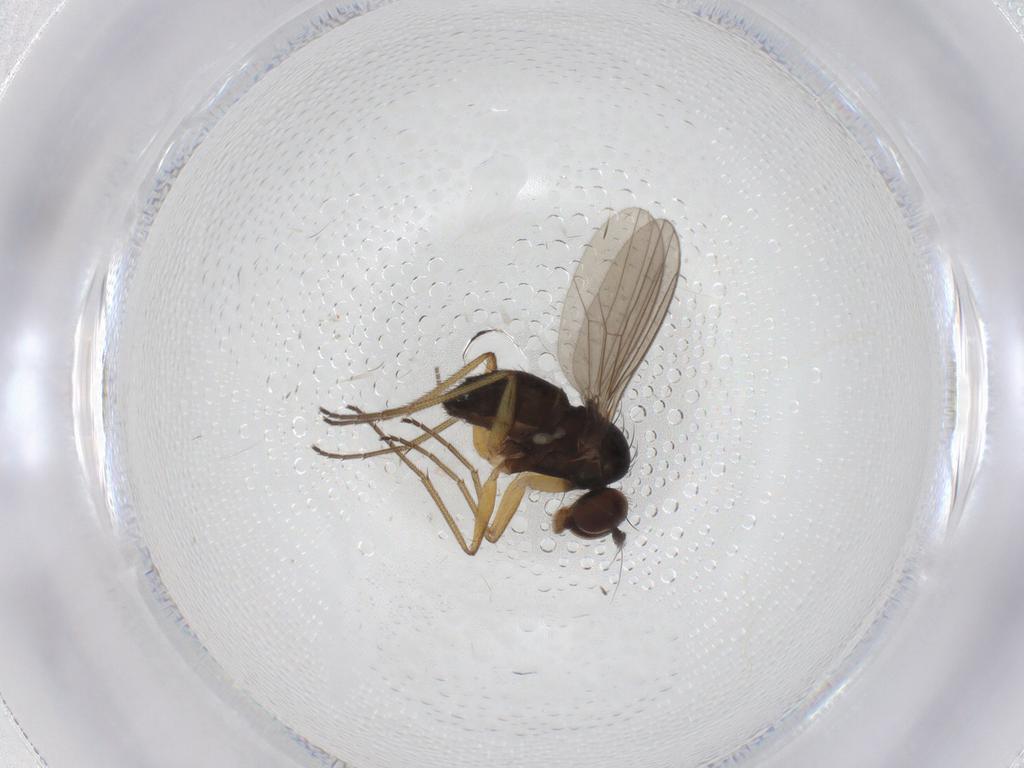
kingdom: Animalia
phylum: Arthropoda
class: Insecta
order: Diptera
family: Dolichopodidae
